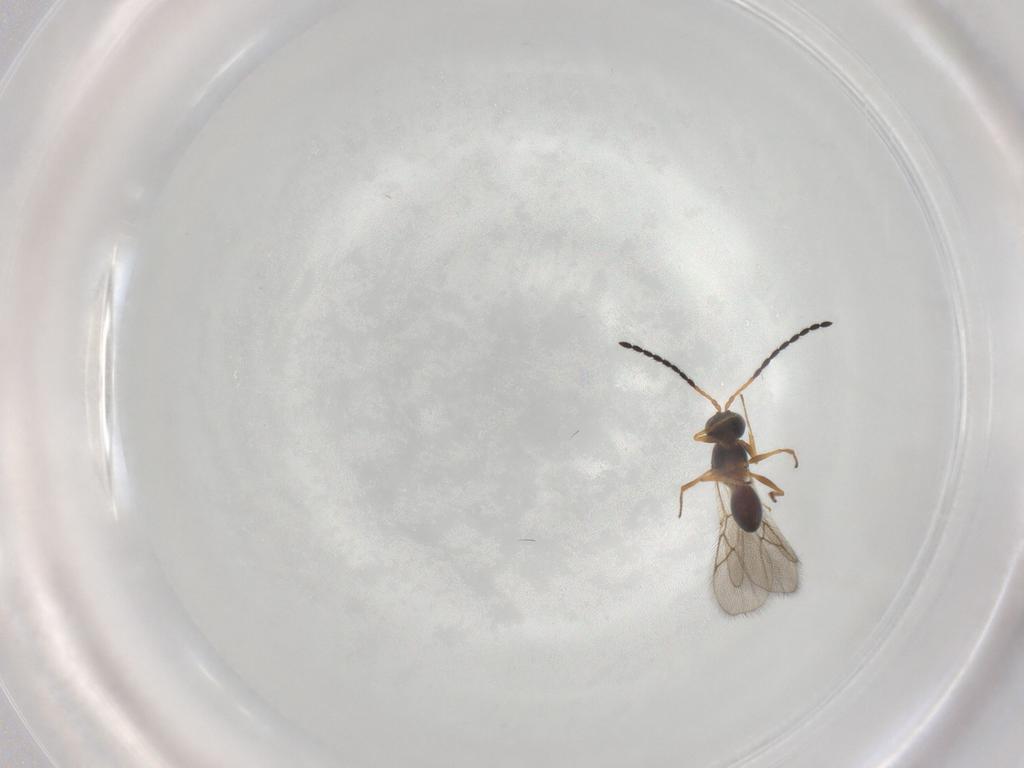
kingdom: Animalia
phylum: Arthropoda
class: Insecta
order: Hymenoptera
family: Figitidae
